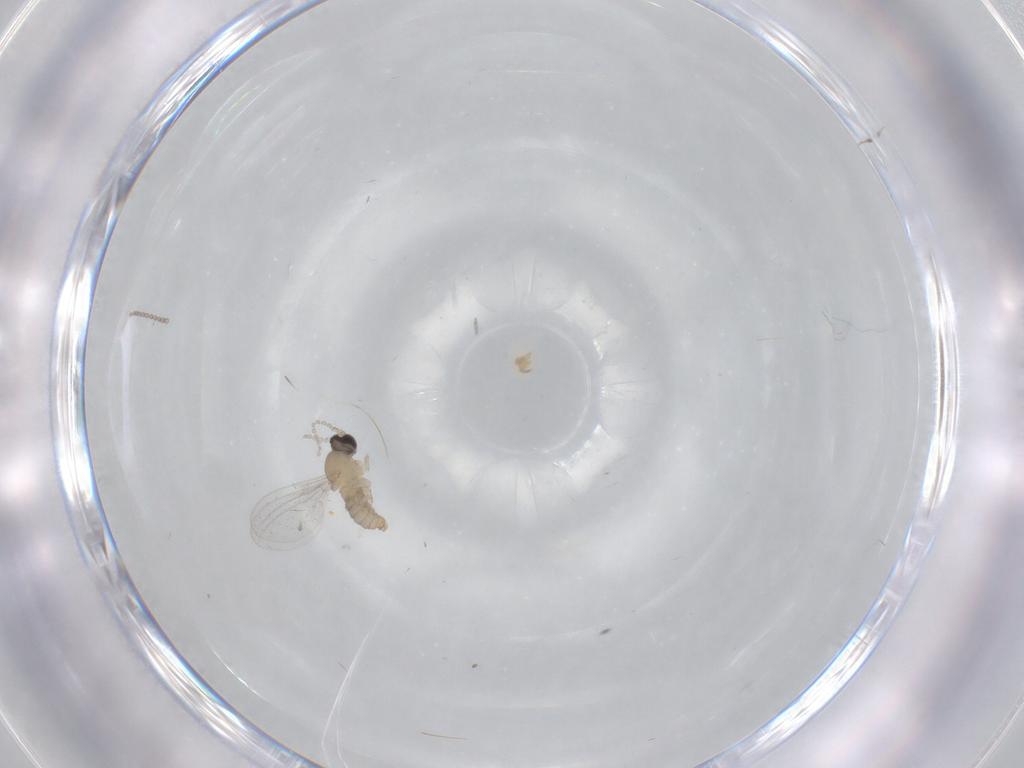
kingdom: Animalia
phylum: Arthropoda
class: Insecta
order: Diptera
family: Cecidomyiidae
